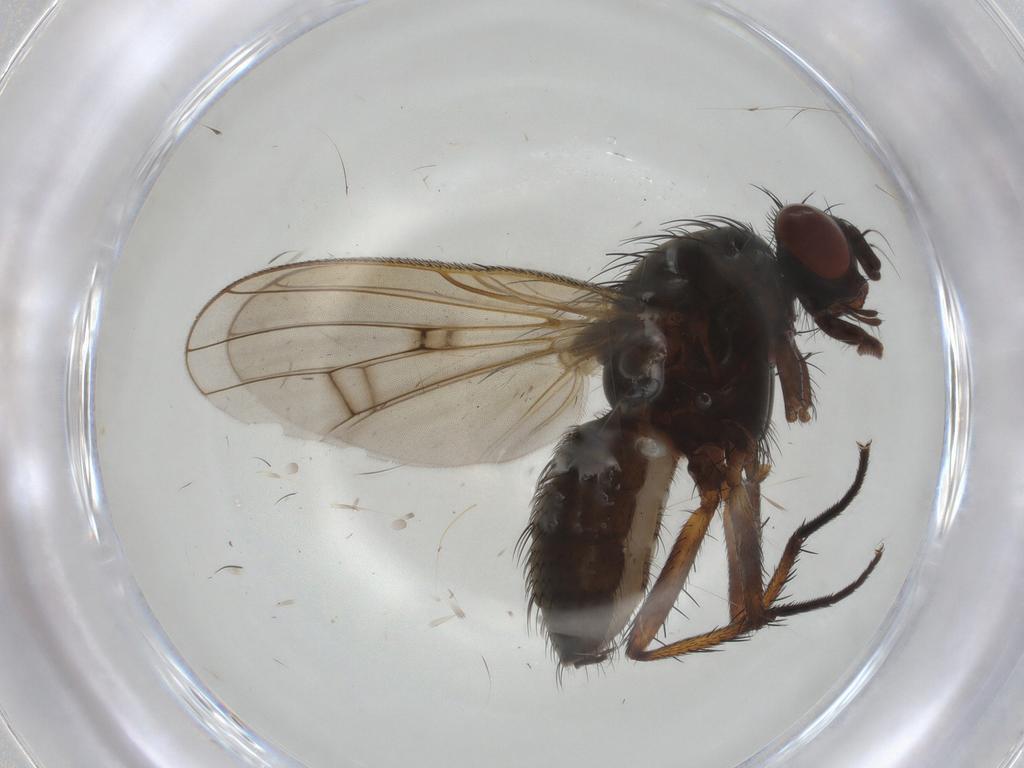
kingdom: Animalia
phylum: Arthropoda
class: Insecta
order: Diptera
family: Anthomyiidae
